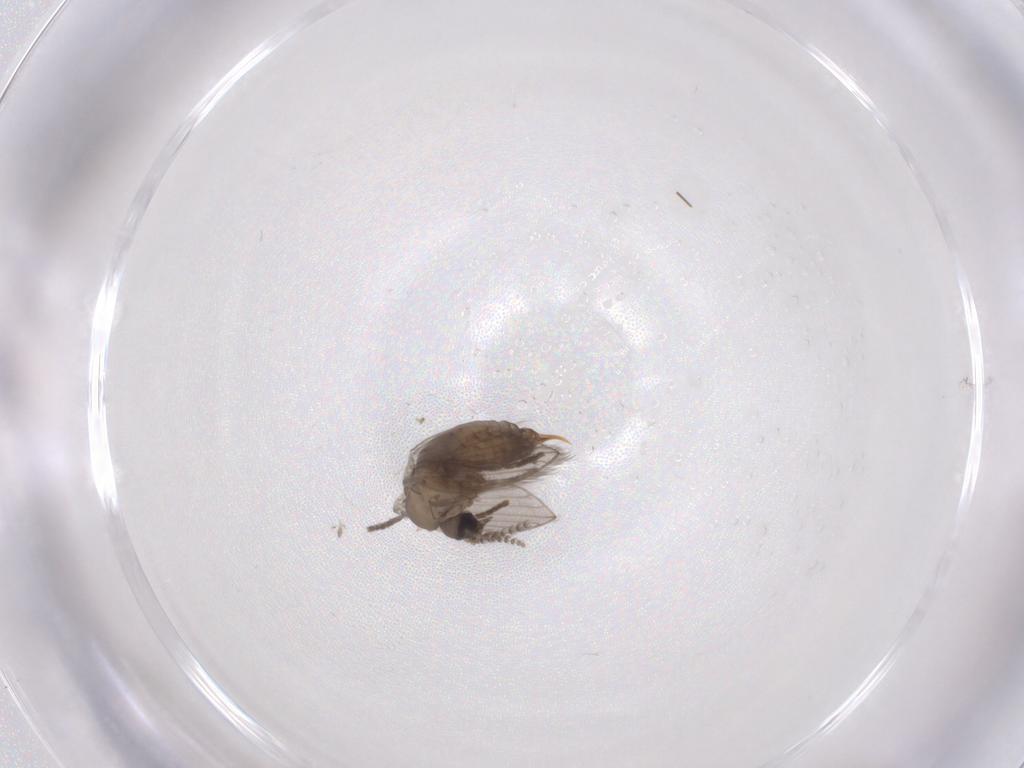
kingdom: Animalia
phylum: Arthropoda
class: Insecta
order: Diptera
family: Psychodidae
